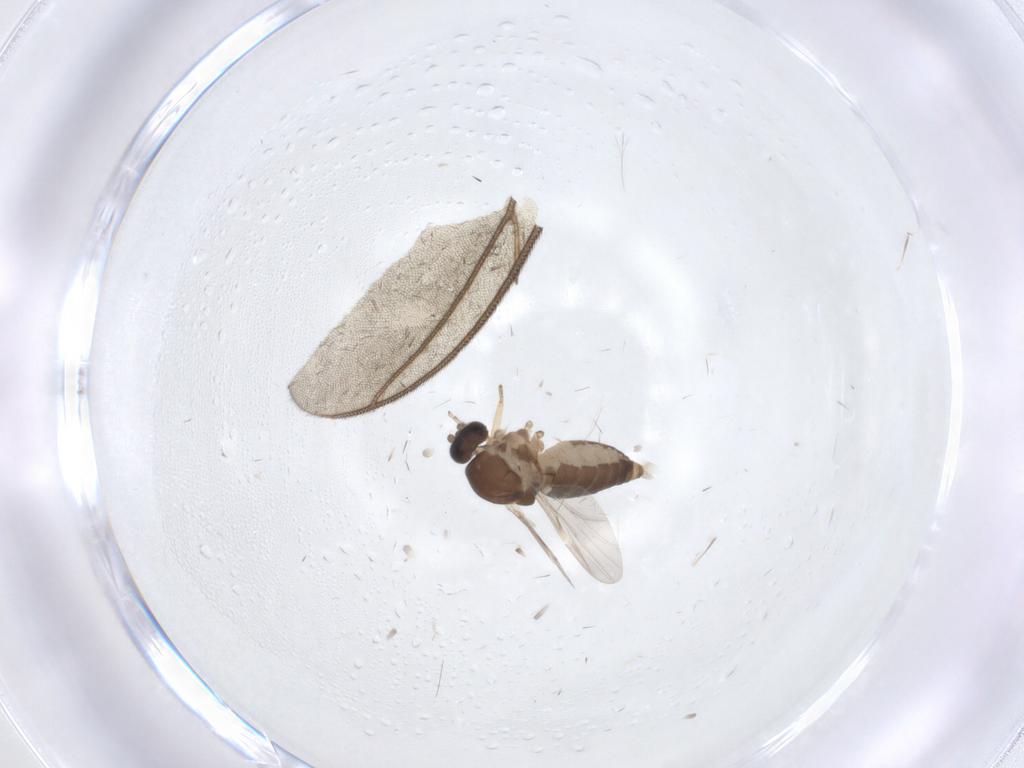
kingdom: Animalia
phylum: Arthropoda
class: Insecta
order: Diptera
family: Ceratopogonidae
